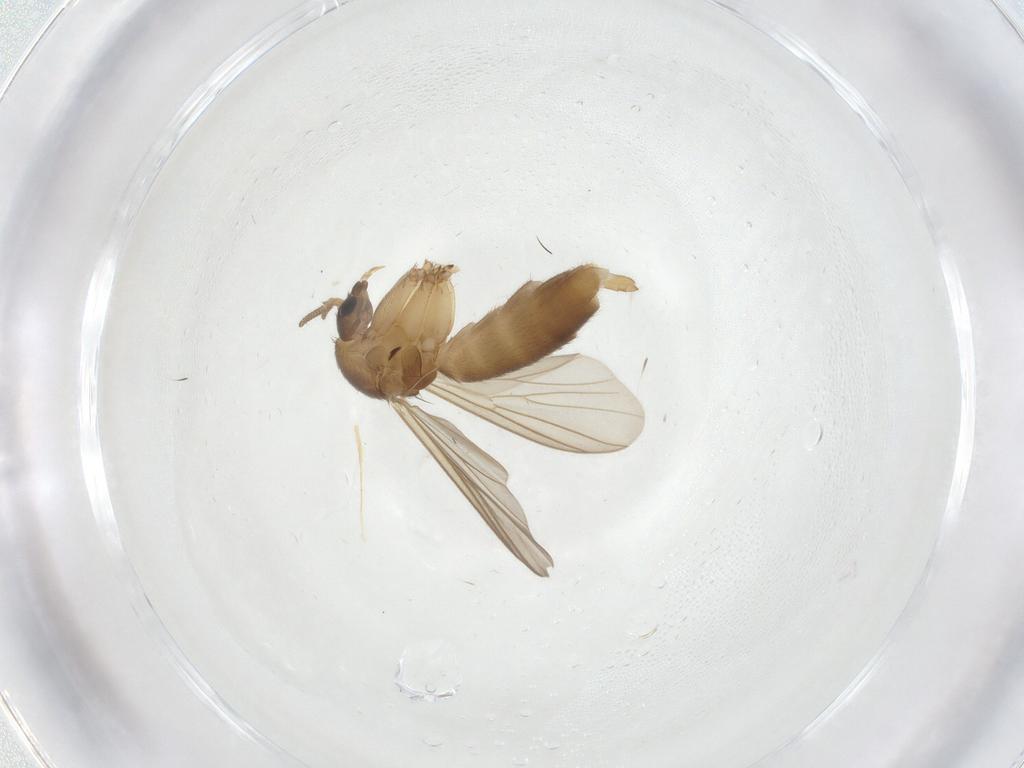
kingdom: Animalia
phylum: Arthropoda
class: Insecta
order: Diptera
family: Mycetophilidae
